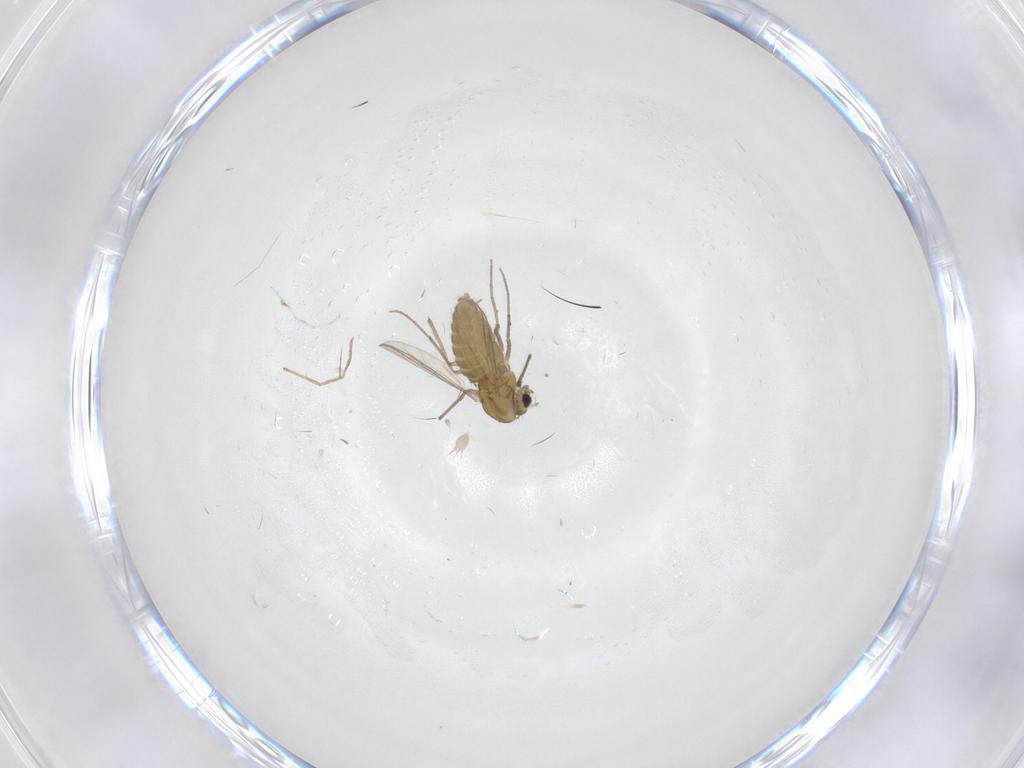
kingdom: Animalia
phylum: Arthropoda
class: Insecta
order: Diptera
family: Chironomidae
